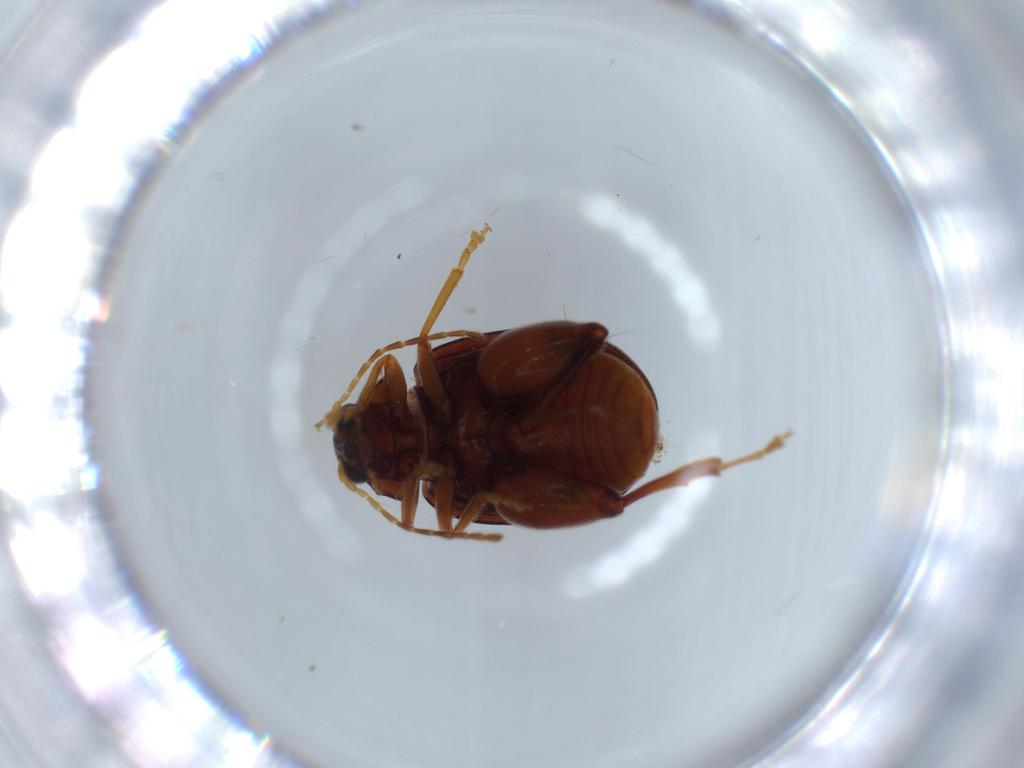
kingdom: Animalia
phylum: Arthropoda
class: Insecta
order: Coleoptera
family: Chrysomelidae
